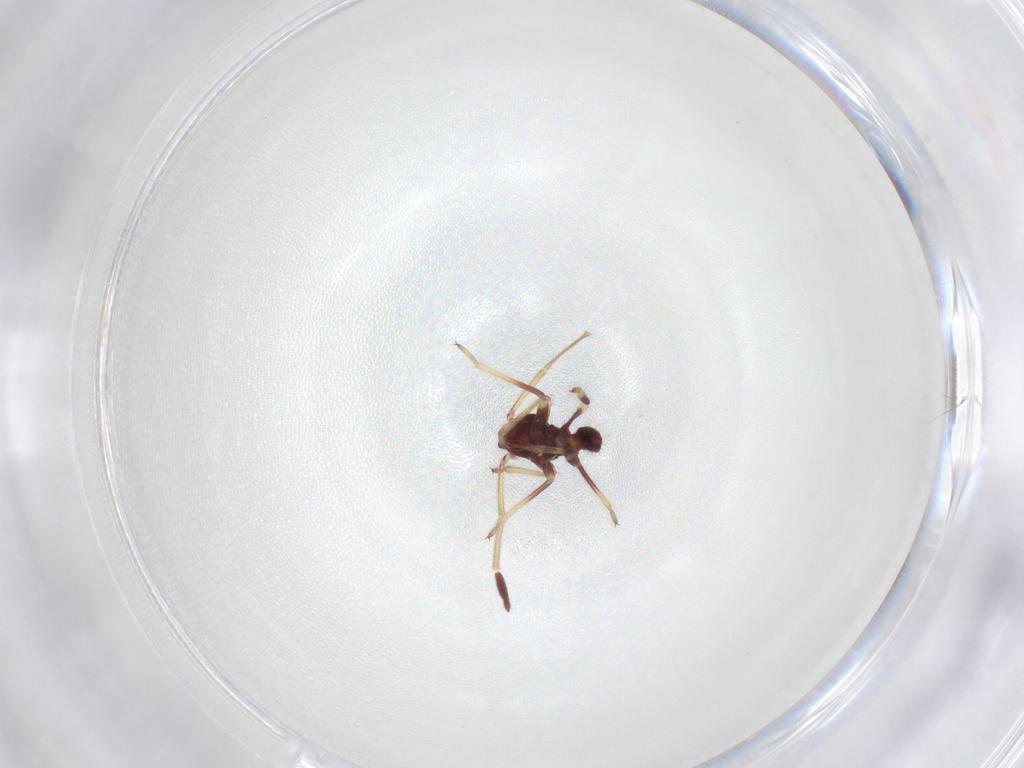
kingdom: Animalia
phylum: Arthropoda
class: Insecta
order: Hemiptera
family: Miridae
